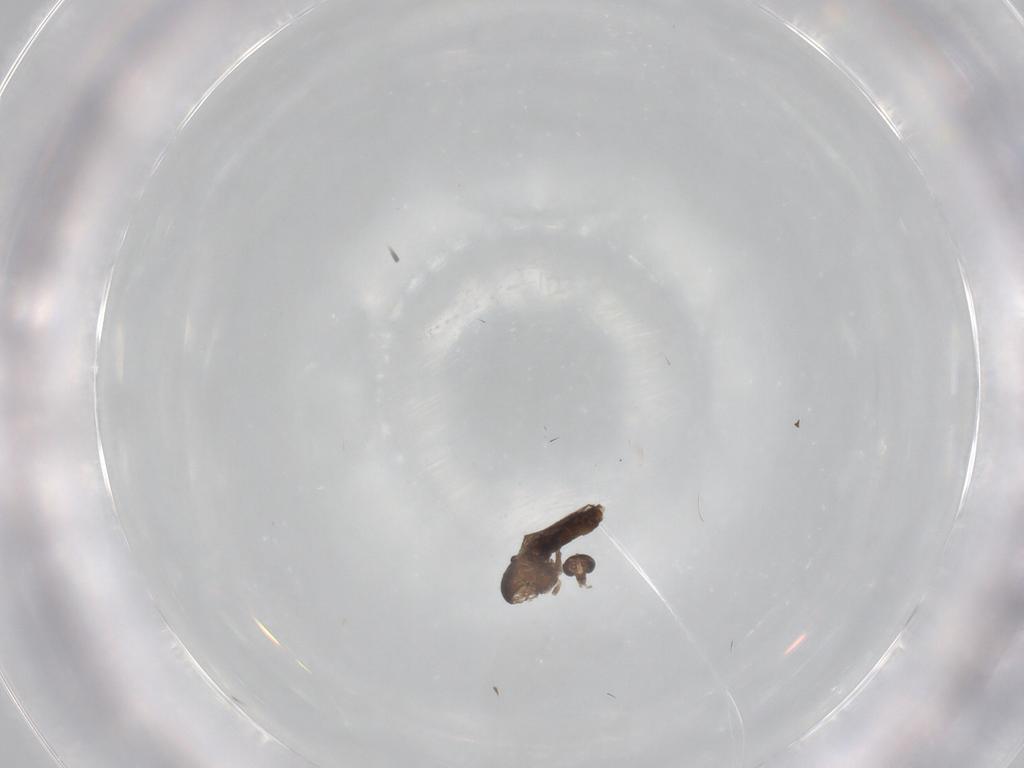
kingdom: Animalia
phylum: Arthropoda
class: Insecta
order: Diptera
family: Chironomidae
